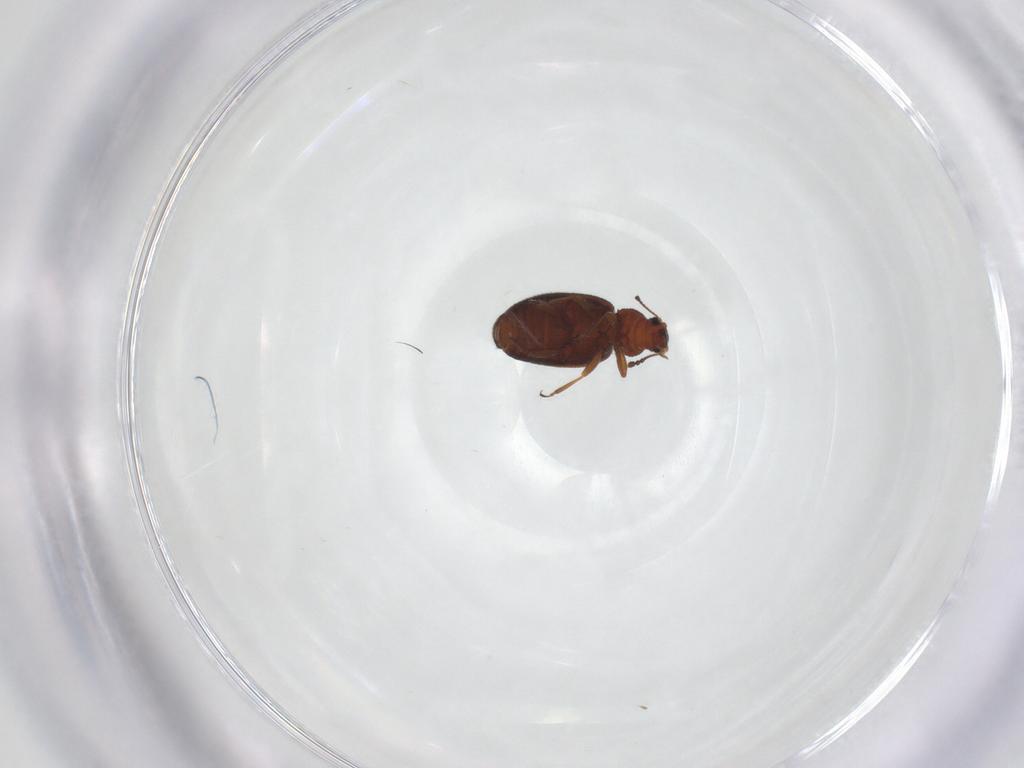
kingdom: Animalia
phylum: Arthropoda
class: Insecta
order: Coleoptera
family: Latridiidae
